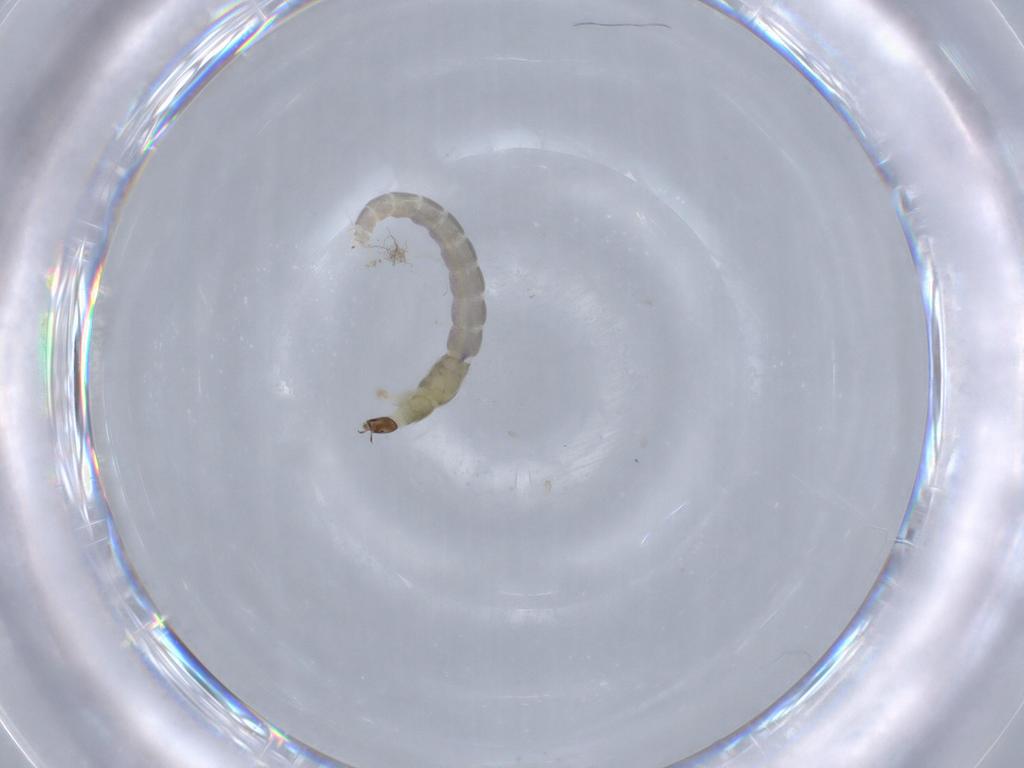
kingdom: Animalia
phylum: Arthropoda
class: Insecta
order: Diptera
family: Chironomidae
